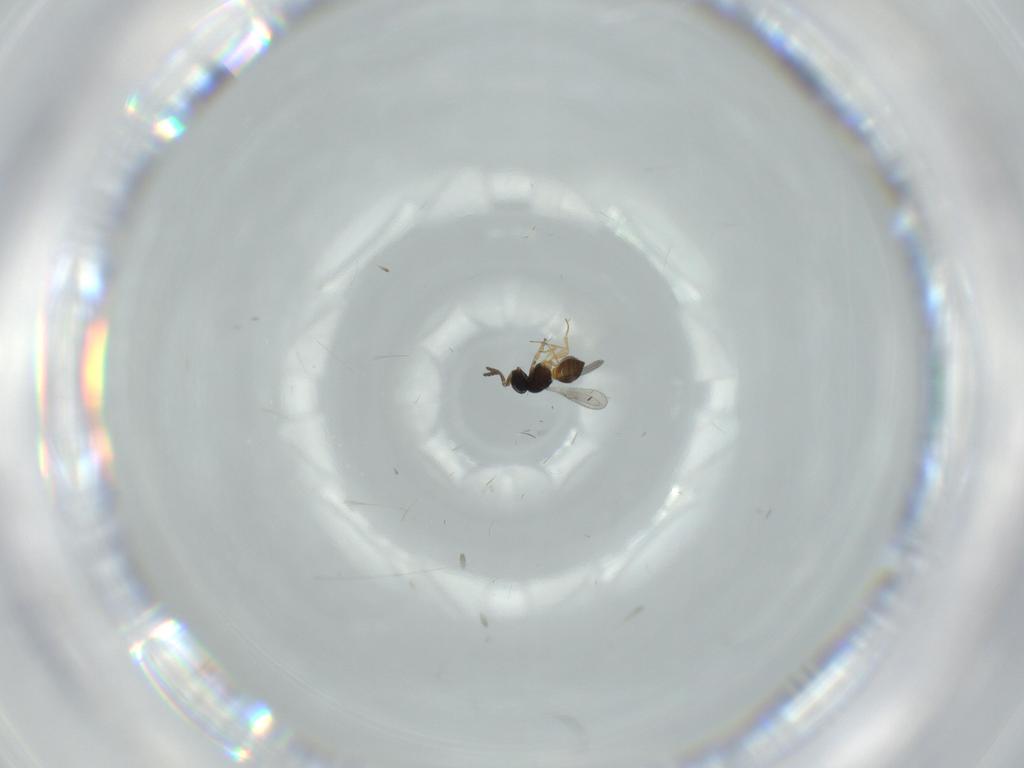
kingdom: Animalia
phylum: Arthropoda
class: Insecta
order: Hymenoptera
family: Scelionidae
